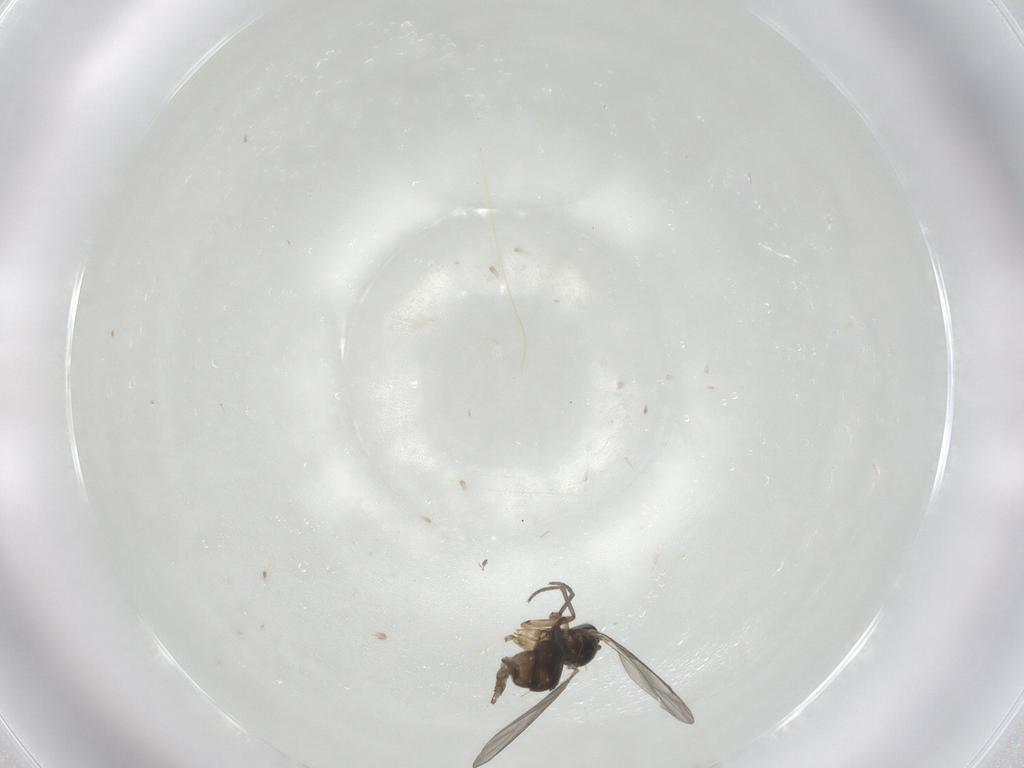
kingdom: Animalia
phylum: Arthropoda
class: Insecta
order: Diptera
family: Sciaridae
